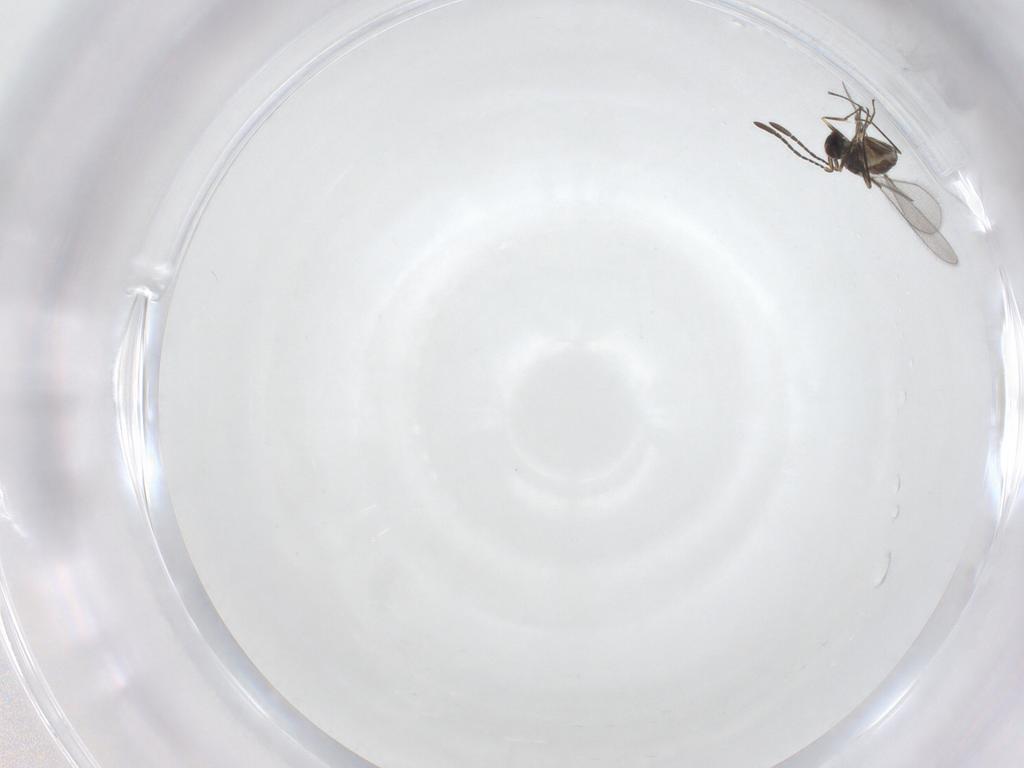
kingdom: Animalia
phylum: Arthropoda
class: Insecta
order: Hymenoptera
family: Mymaridae
